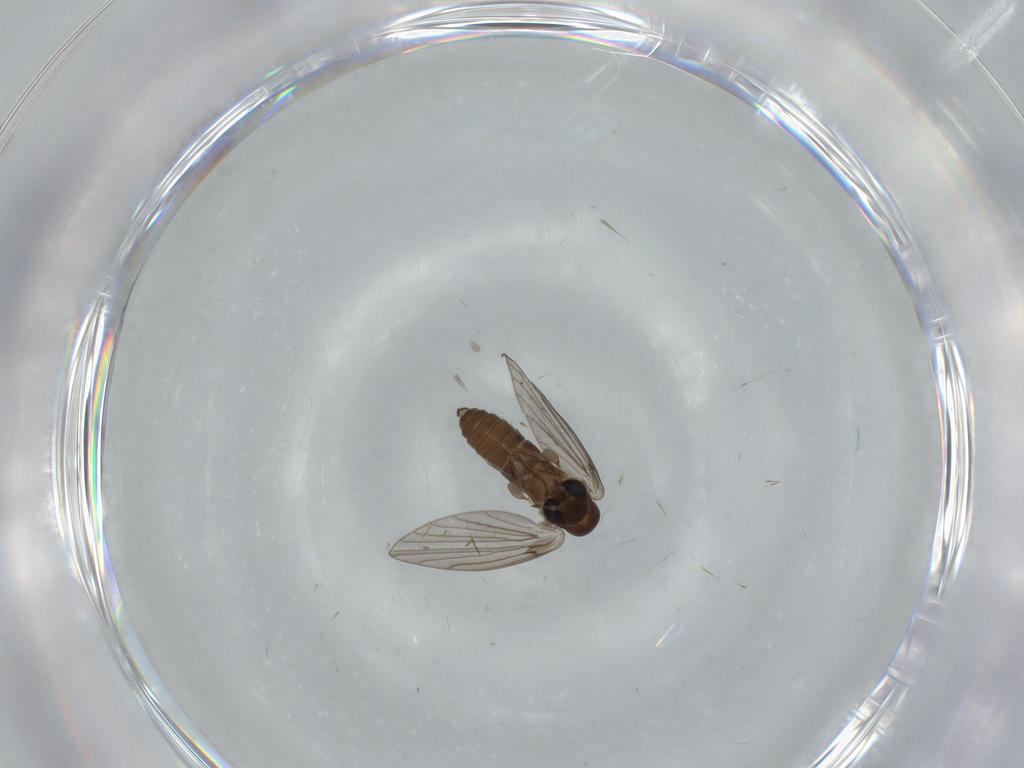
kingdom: Animalia
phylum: Arthropoda
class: Insecta
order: Diptera
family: Psychodidae
